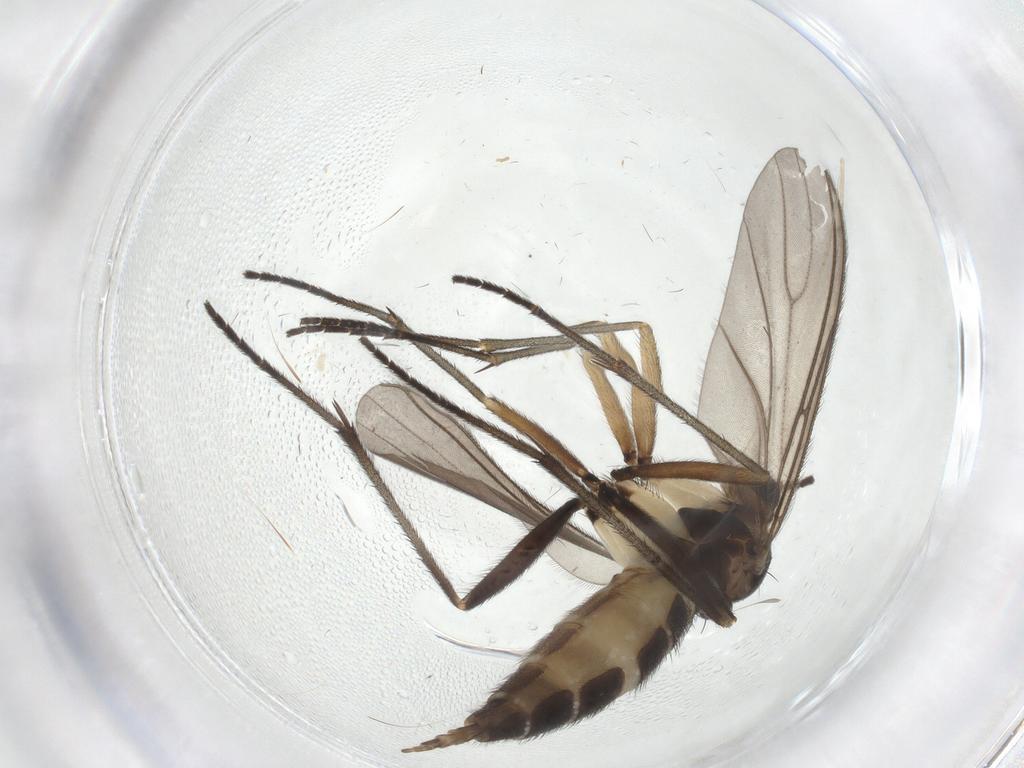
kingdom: Animalia
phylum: Arthropoda
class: Insecta
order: Diptera
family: Sciaridae
